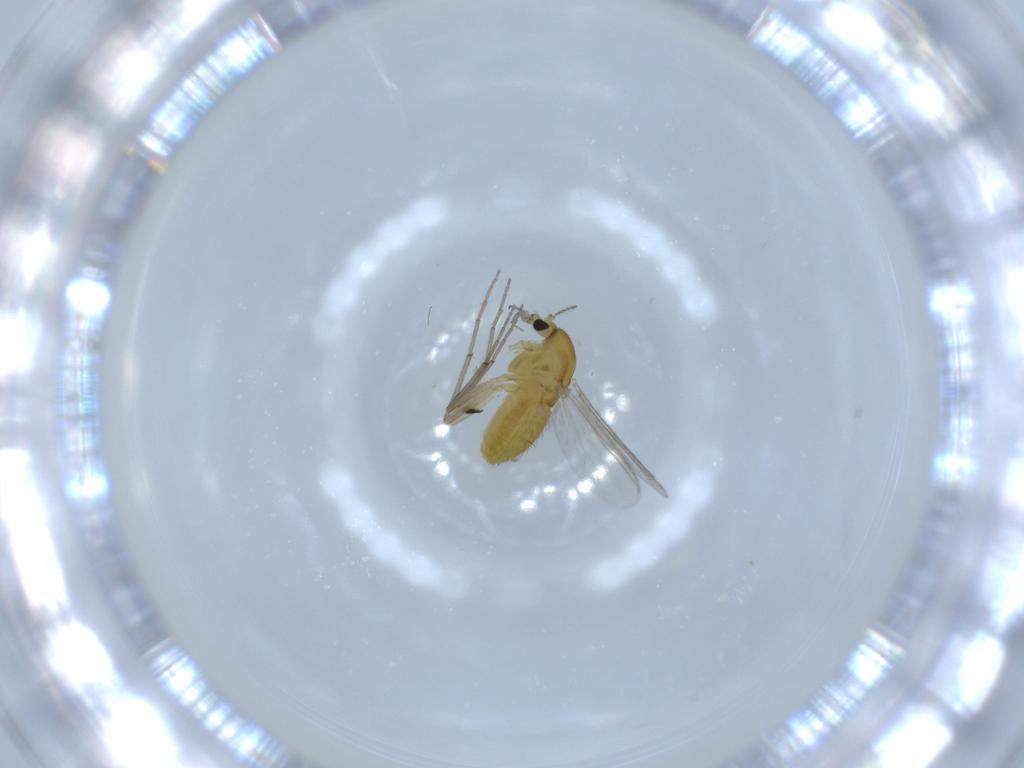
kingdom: Animalia
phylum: Arthropoda
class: Insecta
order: Diptera
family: Chironomidae
